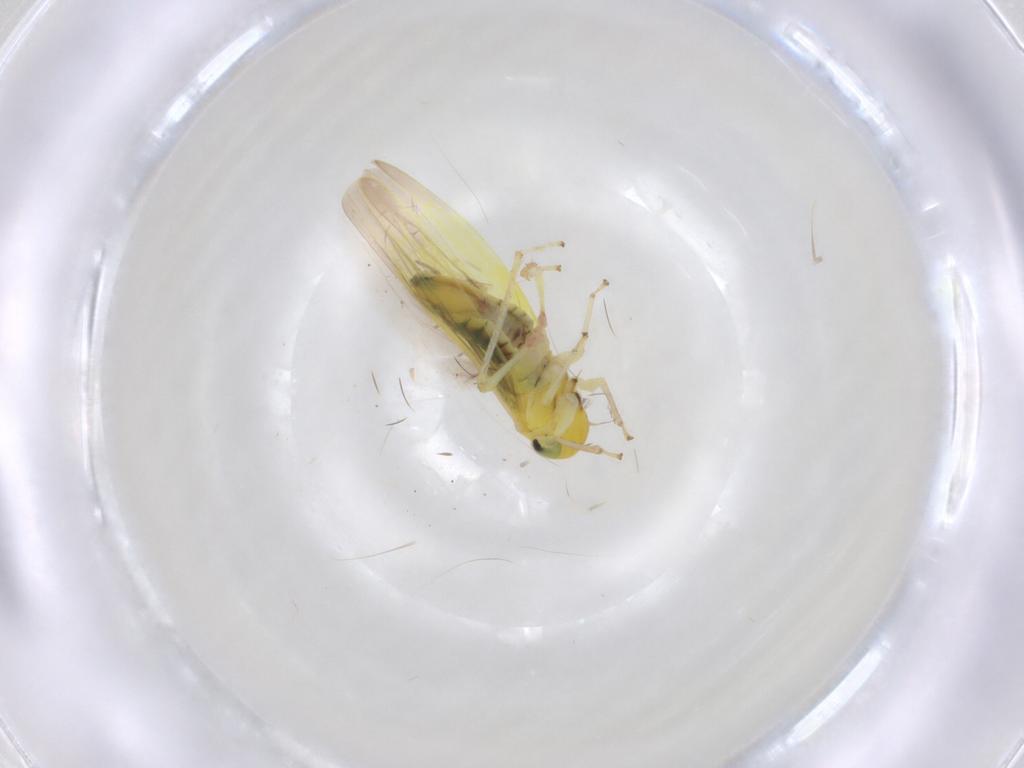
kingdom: Animalia
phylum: Arthropoda
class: Insecta
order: Hemiptera
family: Cicadellidae
